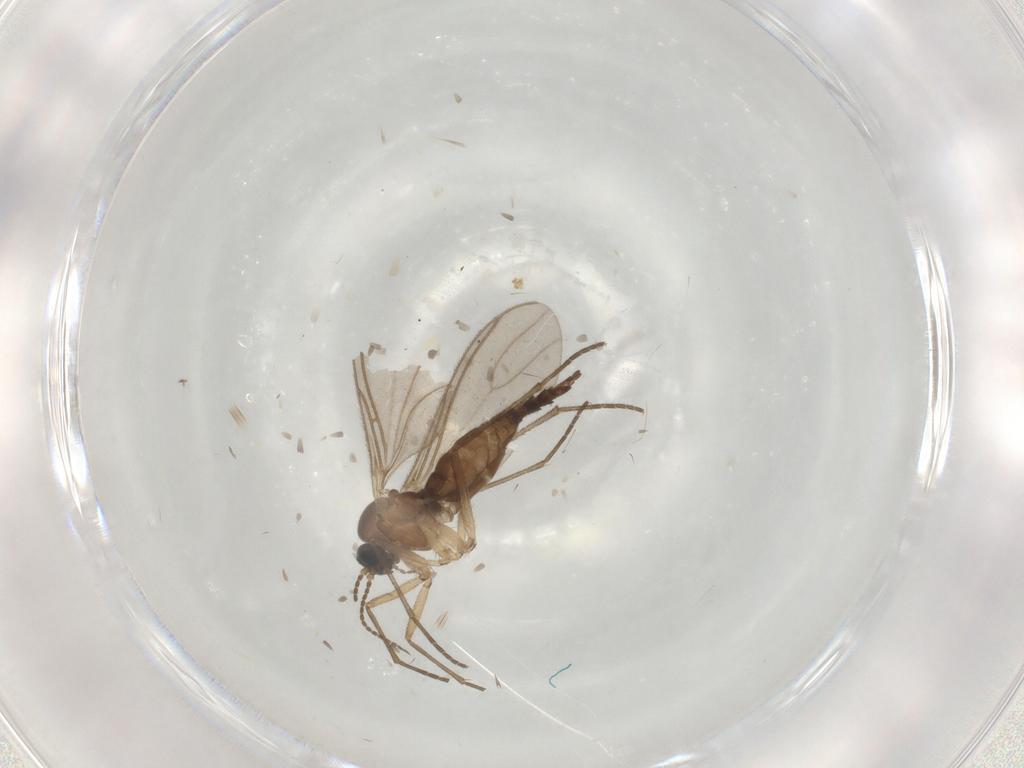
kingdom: Animalia
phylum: Arthropoda
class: Insecta
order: Diptera
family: Sciaridae
